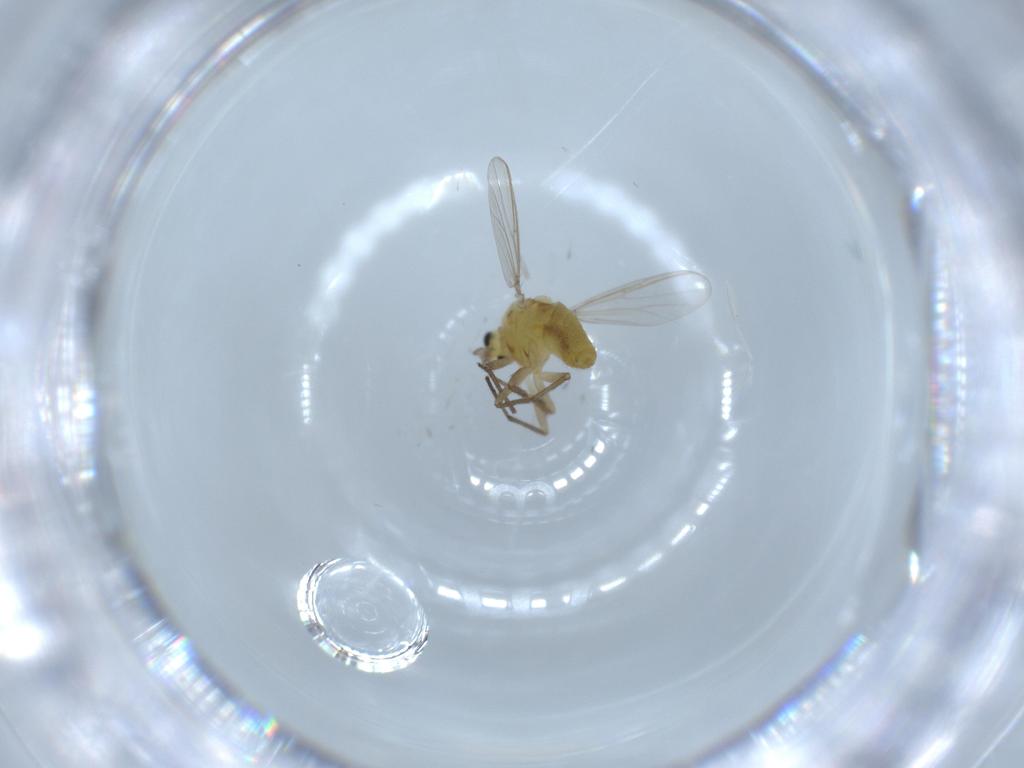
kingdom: Animalia
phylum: Arthropoda
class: Insecta
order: Diptera
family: Chironomidae
